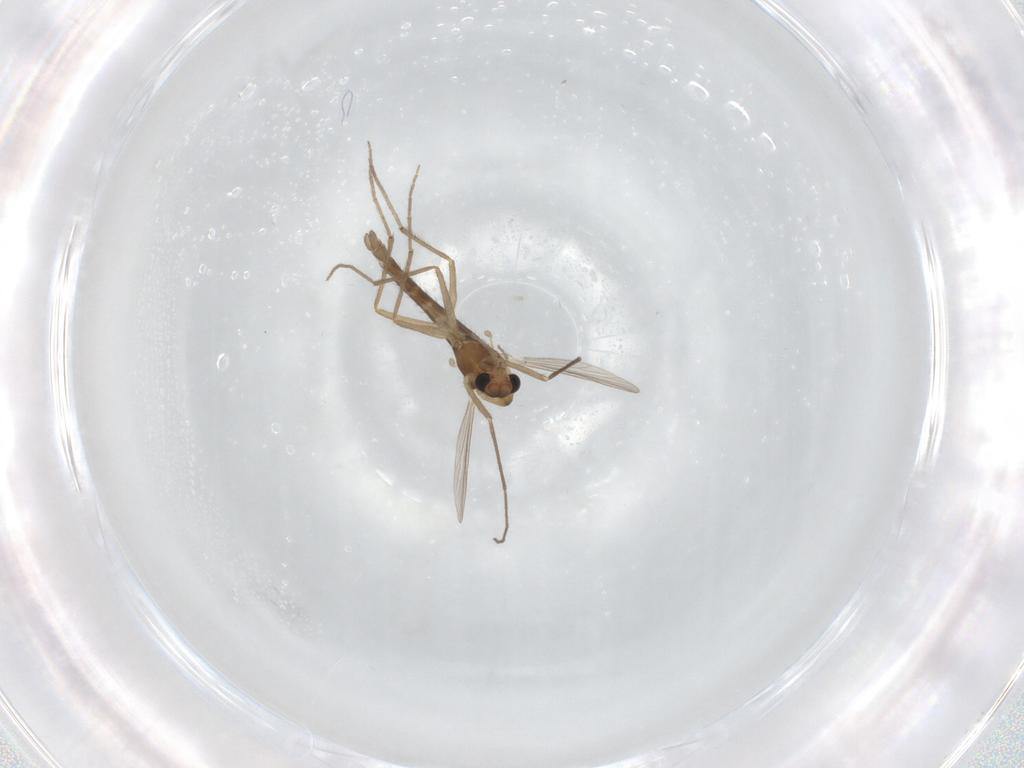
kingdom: Animalia
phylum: Arthropoda
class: Insecta
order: Diptera
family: Chironomidae
